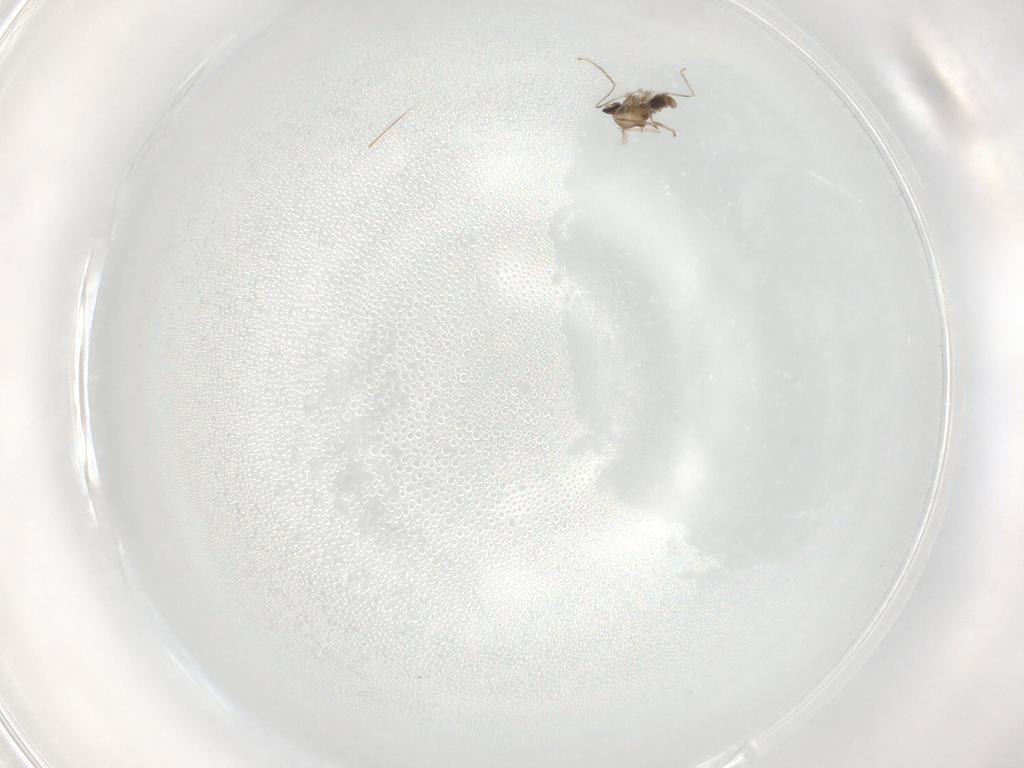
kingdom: Animalia
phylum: Arthropoda
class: Insecta
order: Diptera
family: Cecidomyiidae
